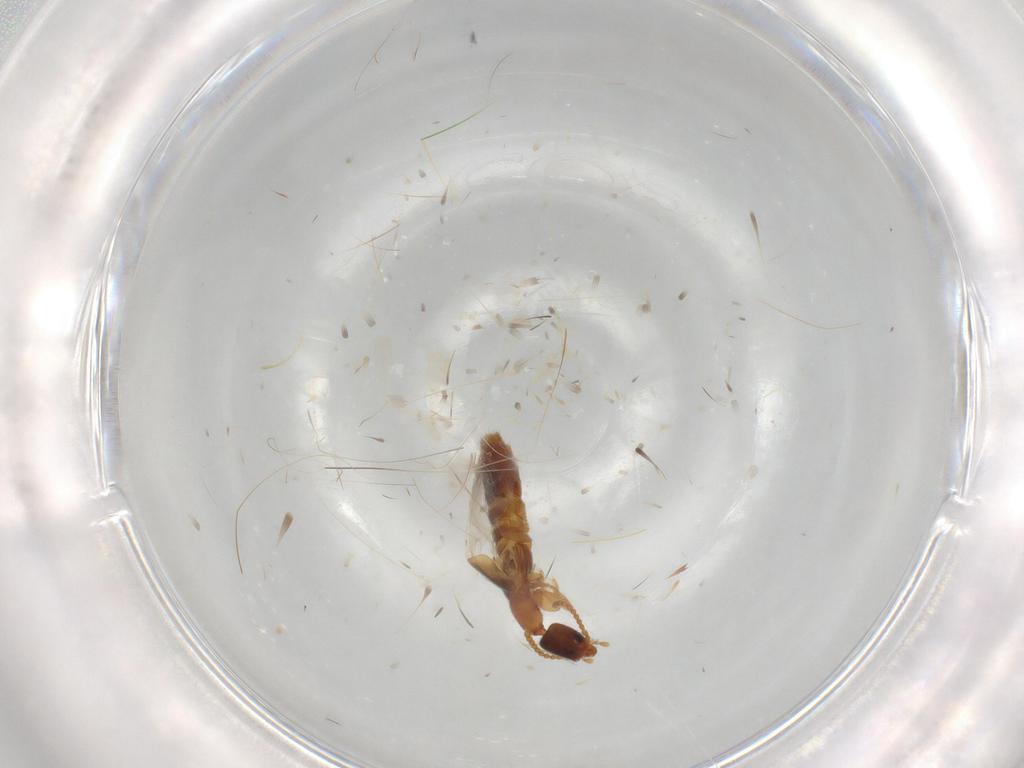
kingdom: Animalia
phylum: Arthropoda
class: Insecta
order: Coleoptera
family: Staphylinidae
